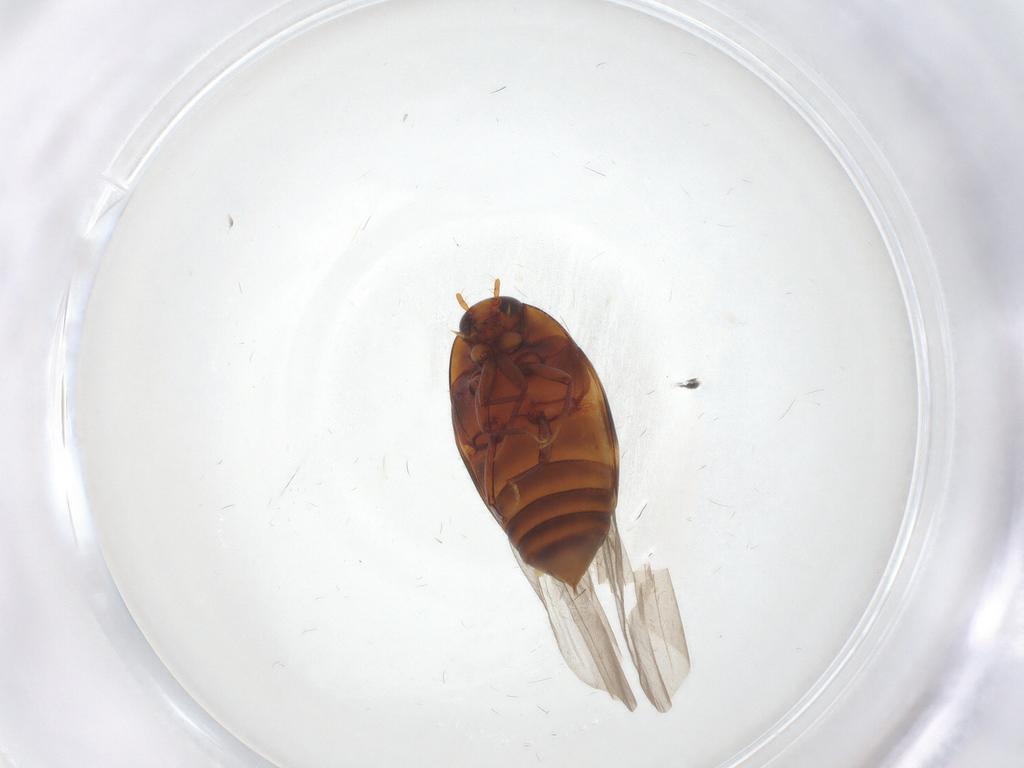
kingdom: Animalia
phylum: Arthropoda
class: Insecta
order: Coleoptera
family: Staphylinidae
